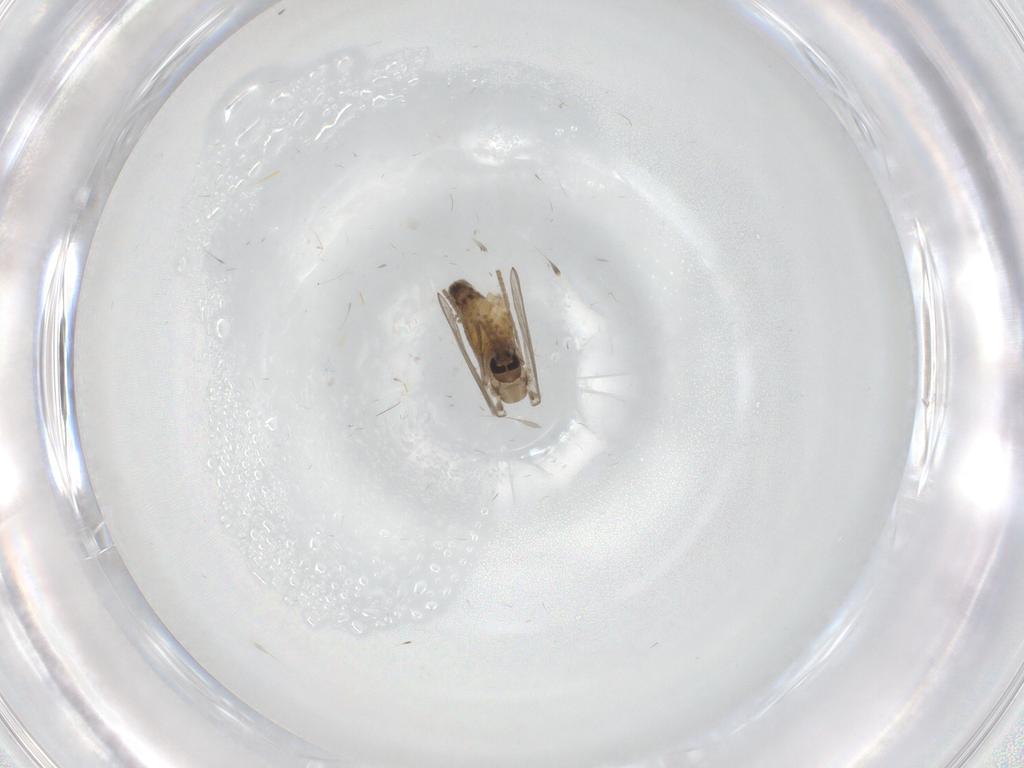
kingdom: Animalia
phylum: Arthropoda
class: Insecta
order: Diptera
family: Psychodidae
